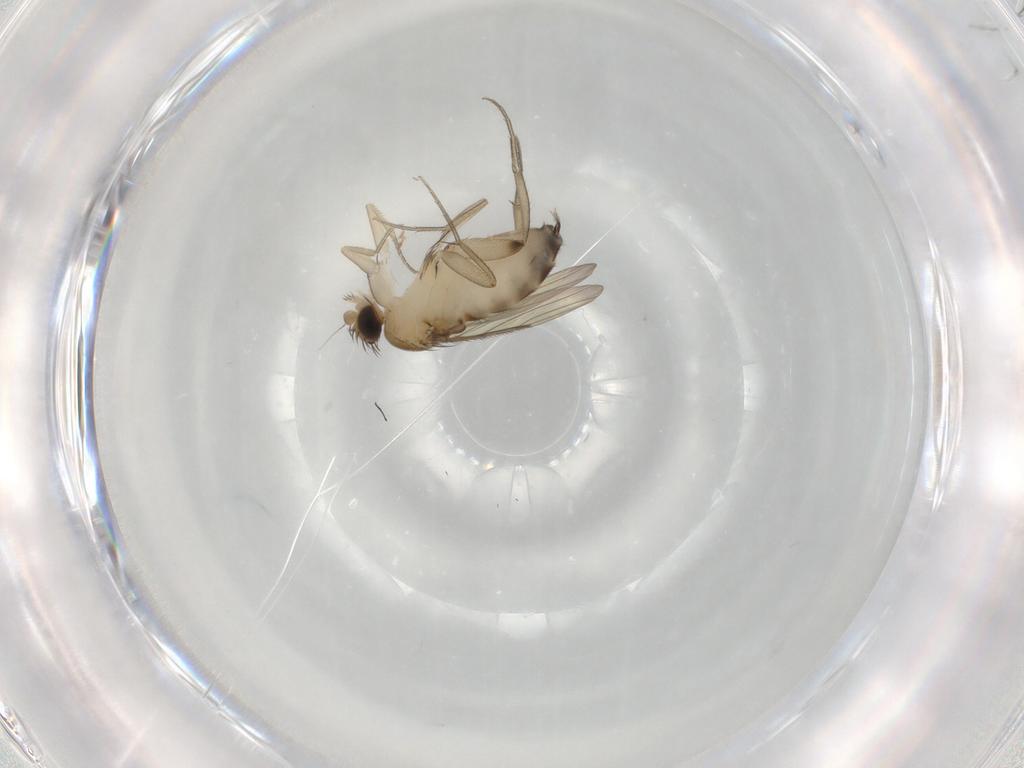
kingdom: Animalia
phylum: Arthropoda
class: Insecta
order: Diptera
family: Phoridae
